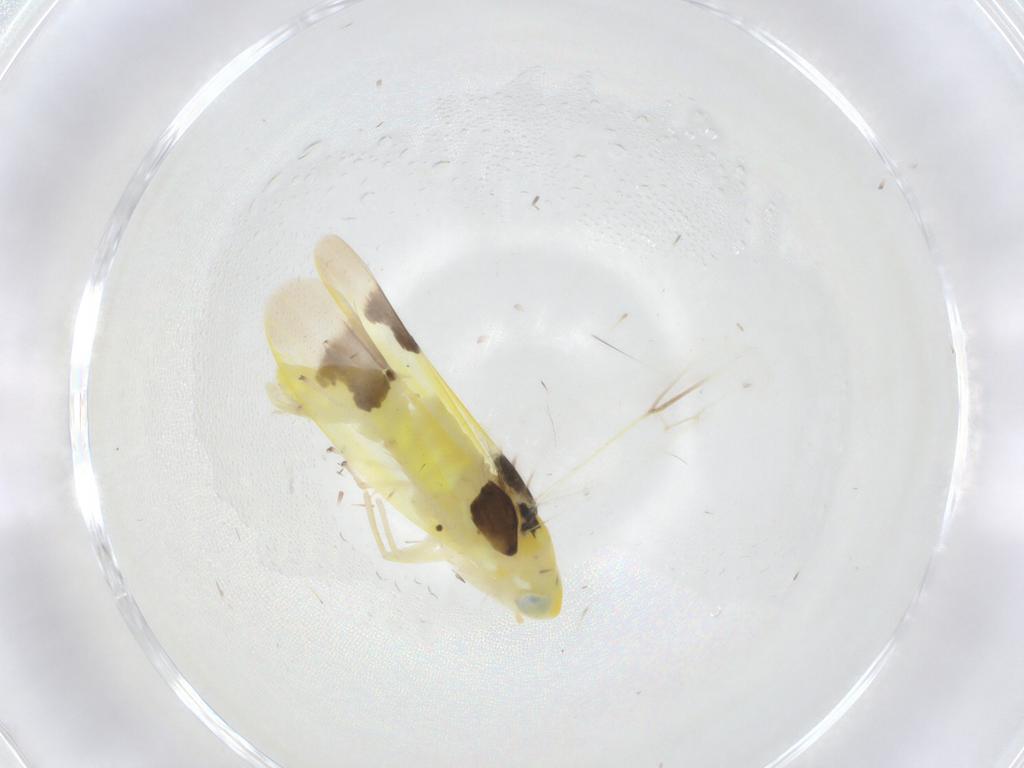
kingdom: Animalia
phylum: Arthropoda
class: Insecta
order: Hemiptera
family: Cicadellidae
